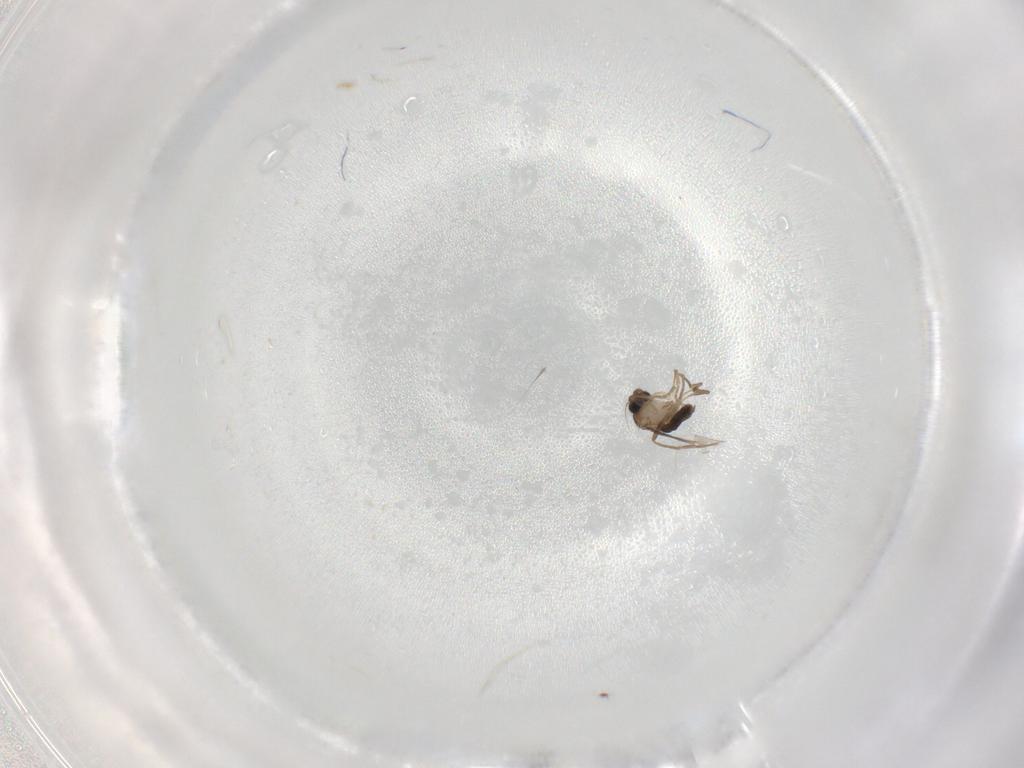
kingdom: Animalia
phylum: Arthropoda
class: Insecta
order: Diptera
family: Phoridae
